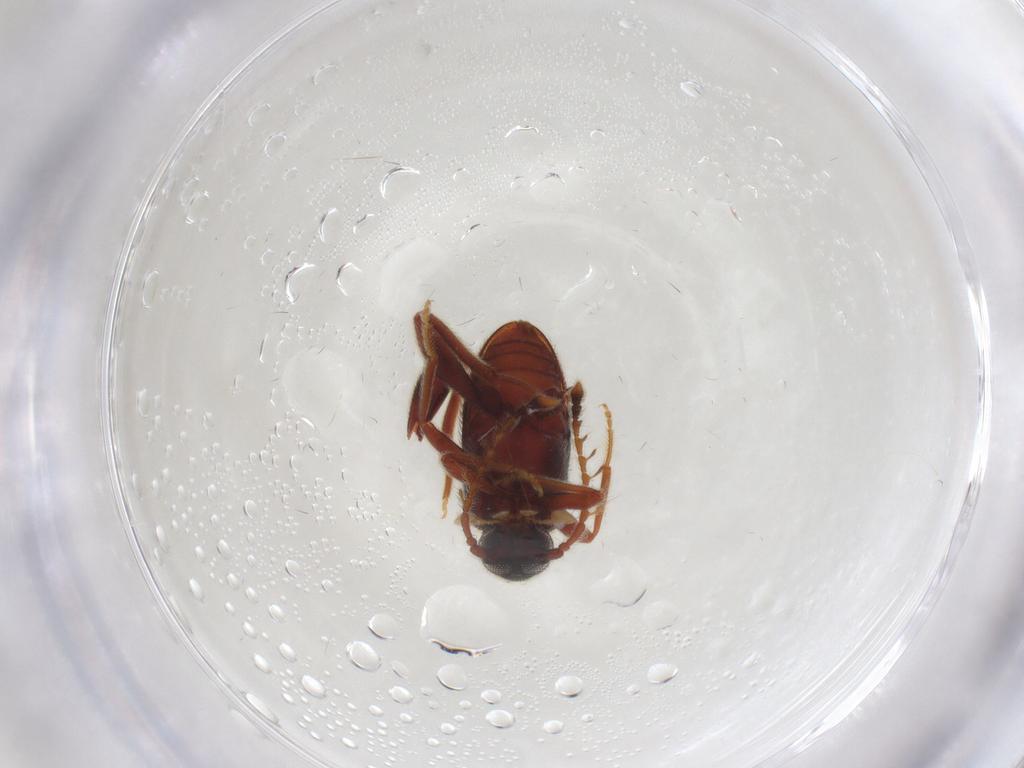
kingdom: Animalia
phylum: Arthropoda
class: Insecta
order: Coleoptera
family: Aderidae
